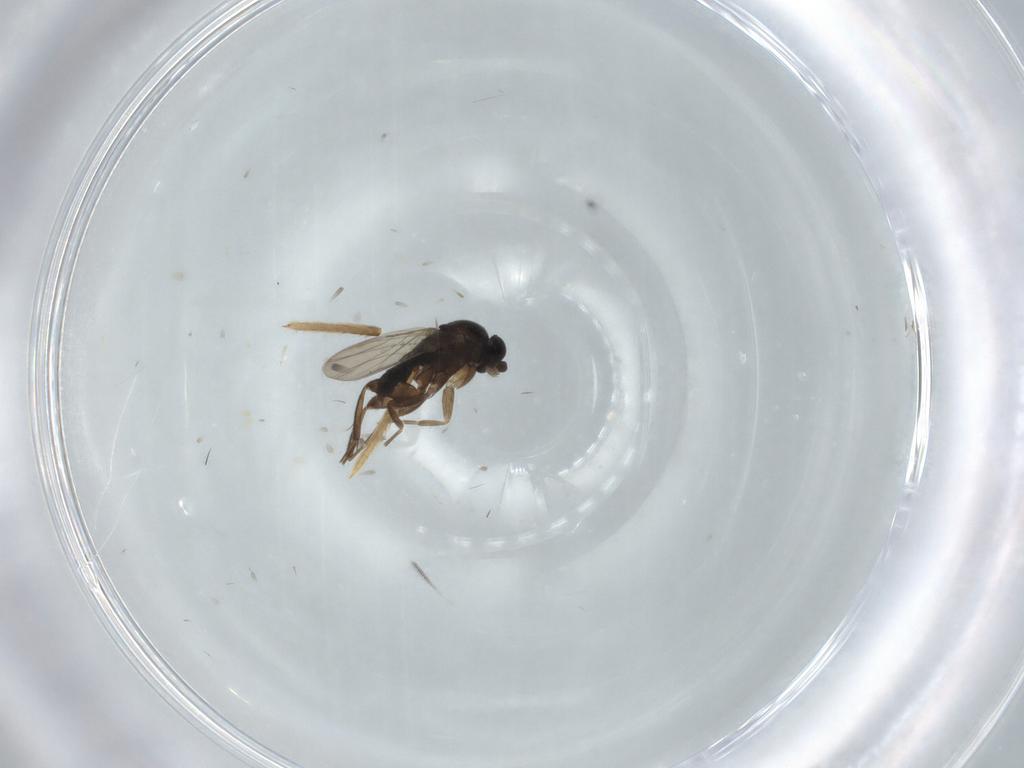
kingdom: Animalia
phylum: Arthropoda
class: Insecta
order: Diptera
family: Phoridae
